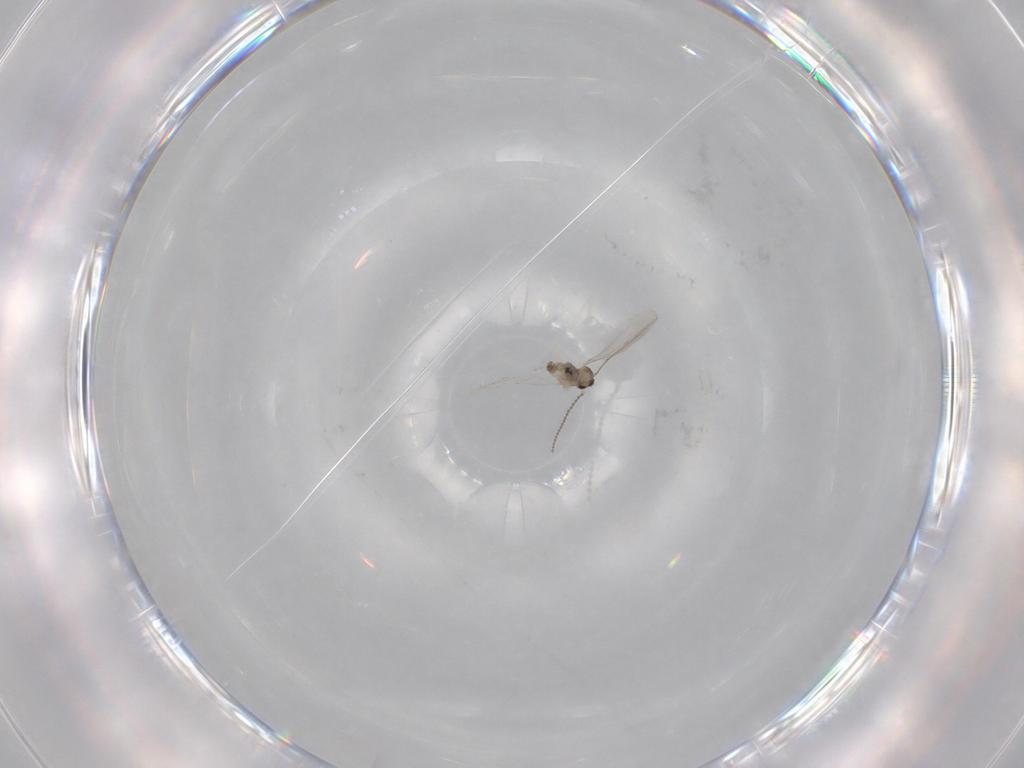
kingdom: Animalia
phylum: Arthropoda
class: Insecta
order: Diptera
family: Cecidomyiidae
